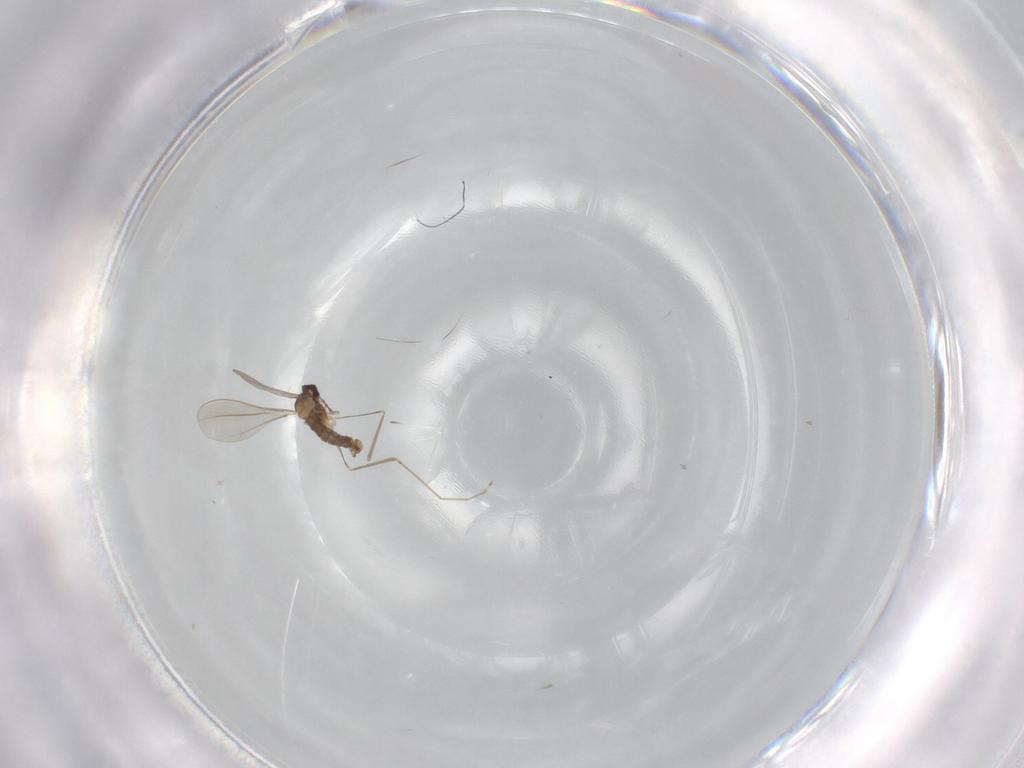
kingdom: Animalia
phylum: Arthropoda
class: Insecta
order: Diptera
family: Cecidomyiidae
